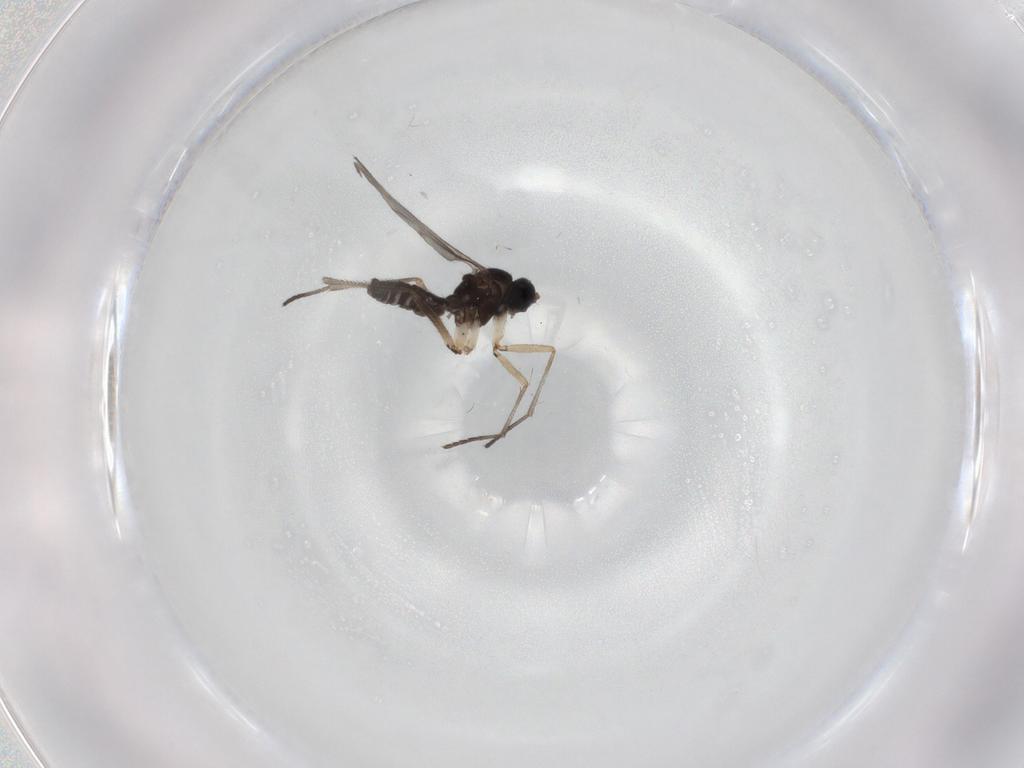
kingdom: Animalia
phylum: Arthropoda
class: Insecta
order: Diptera
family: Sciaridae
